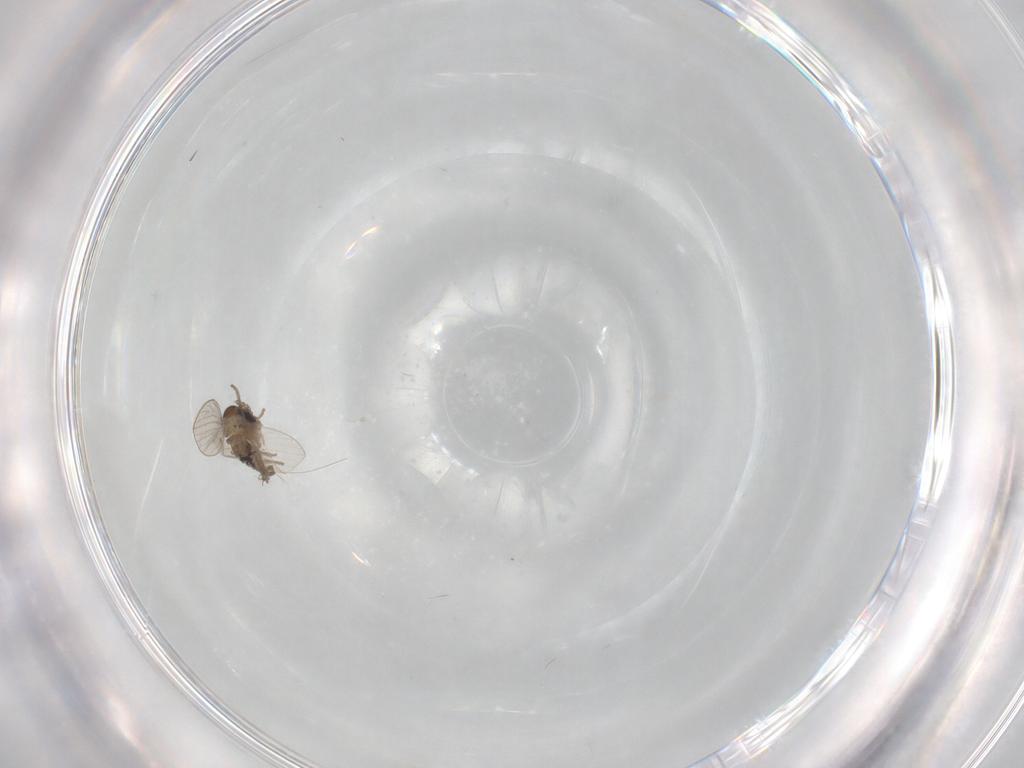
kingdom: Animalia
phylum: Arthropoda
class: Insecta
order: Diptera
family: Psychodidae
